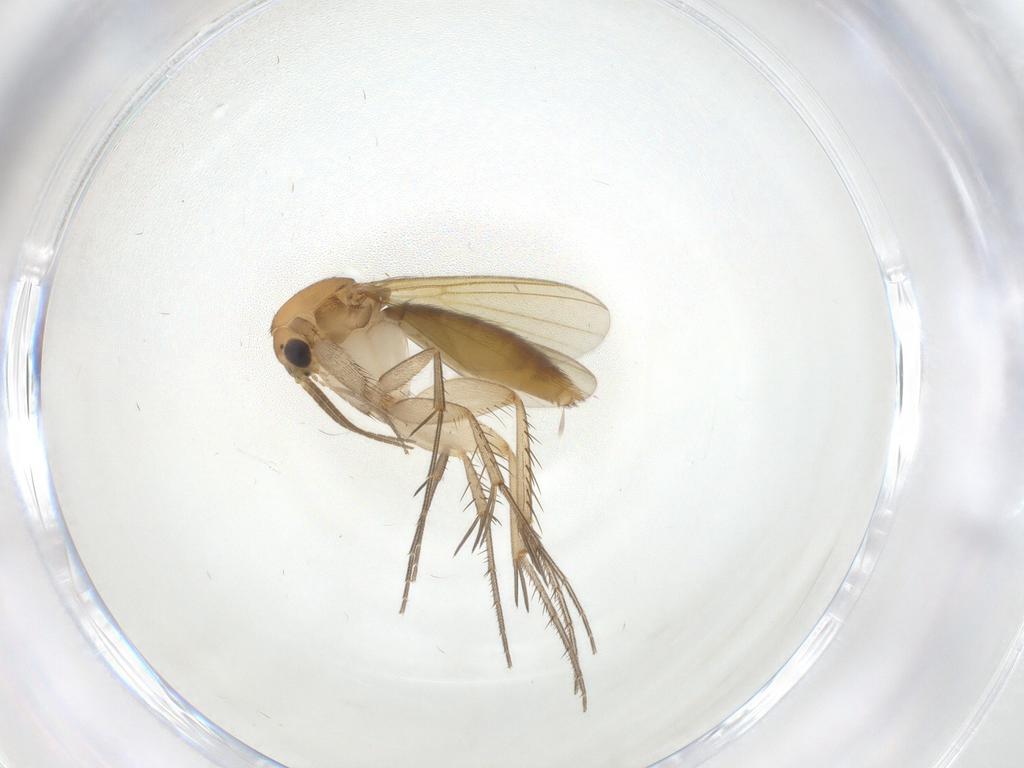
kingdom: Animalia
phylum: Arthropoda
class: Insecta
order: Diptera
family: Mycetophilidae
